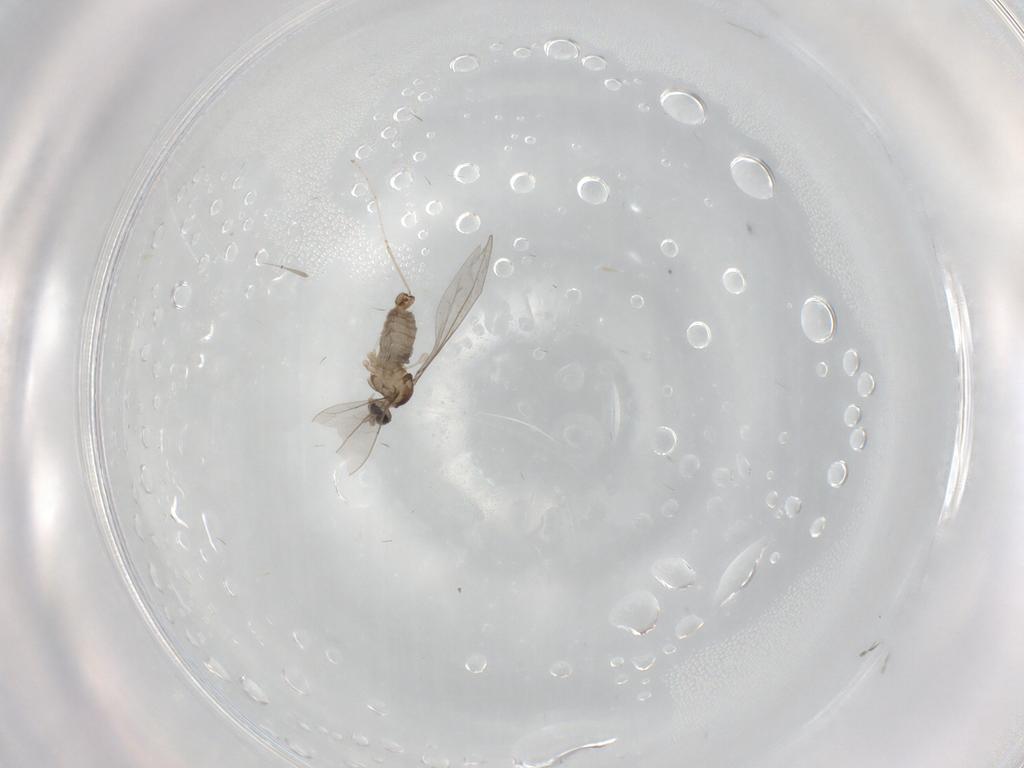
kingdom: Animalia
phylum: Arthropoda
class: Insecta
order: Diptera
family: Cecidomyiidae
